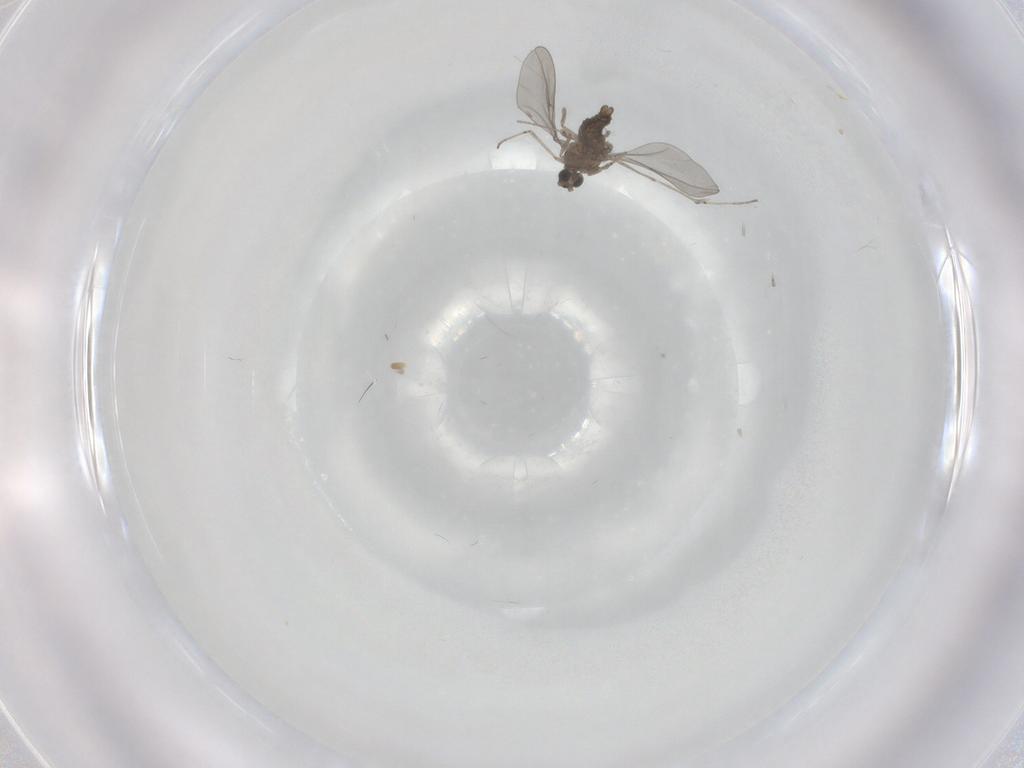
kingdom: Animalia
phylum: Arthropoda
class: Insecta
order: Diptera
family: Cecidomyiidae
